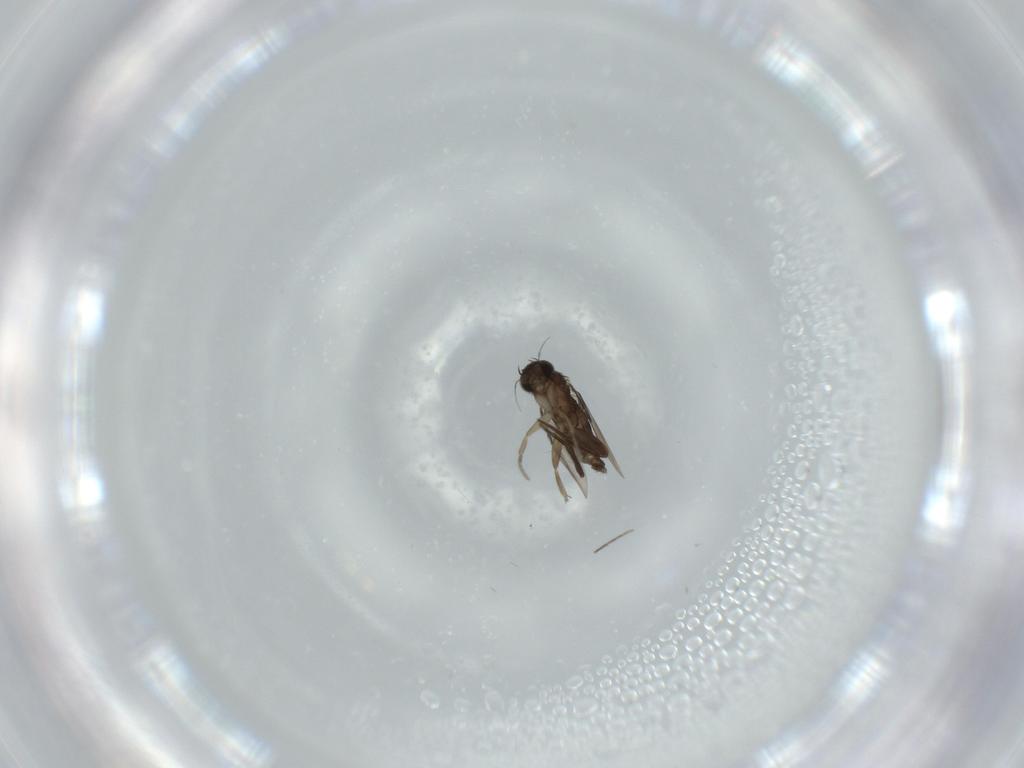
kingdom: Animalia
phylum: Arthropoda
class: Insecta
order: Diptera
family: Phoridae
